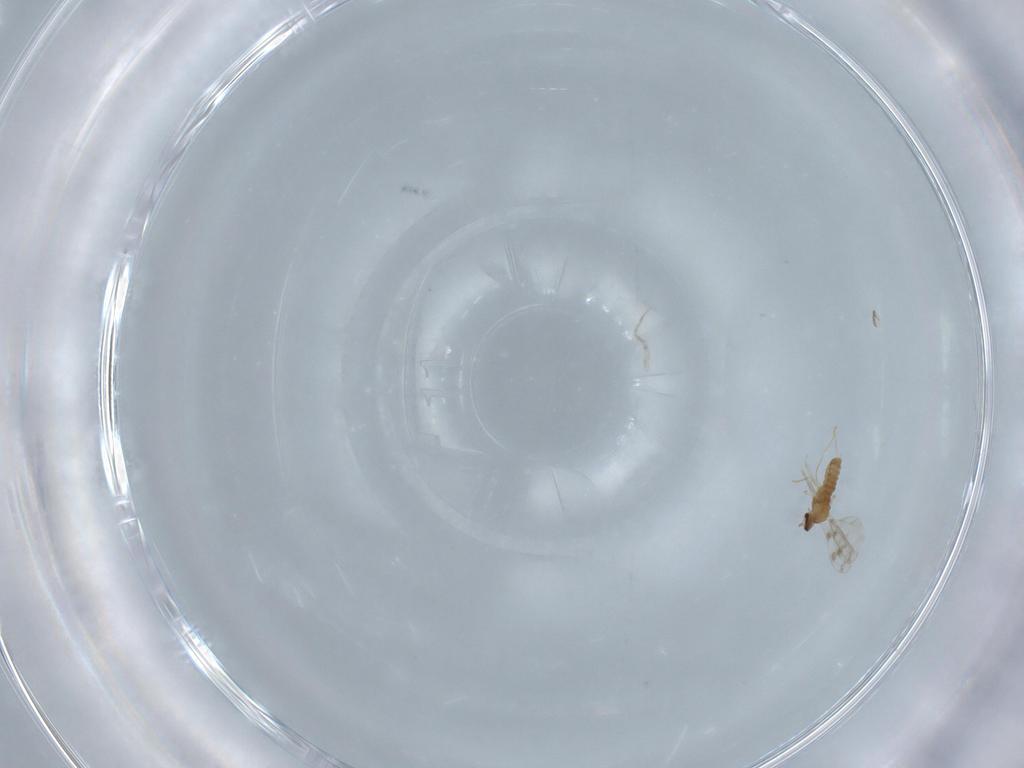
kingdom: Animalia
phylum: Arthropoda
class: Insecta
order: Diptera
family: Cecidomyiidae
